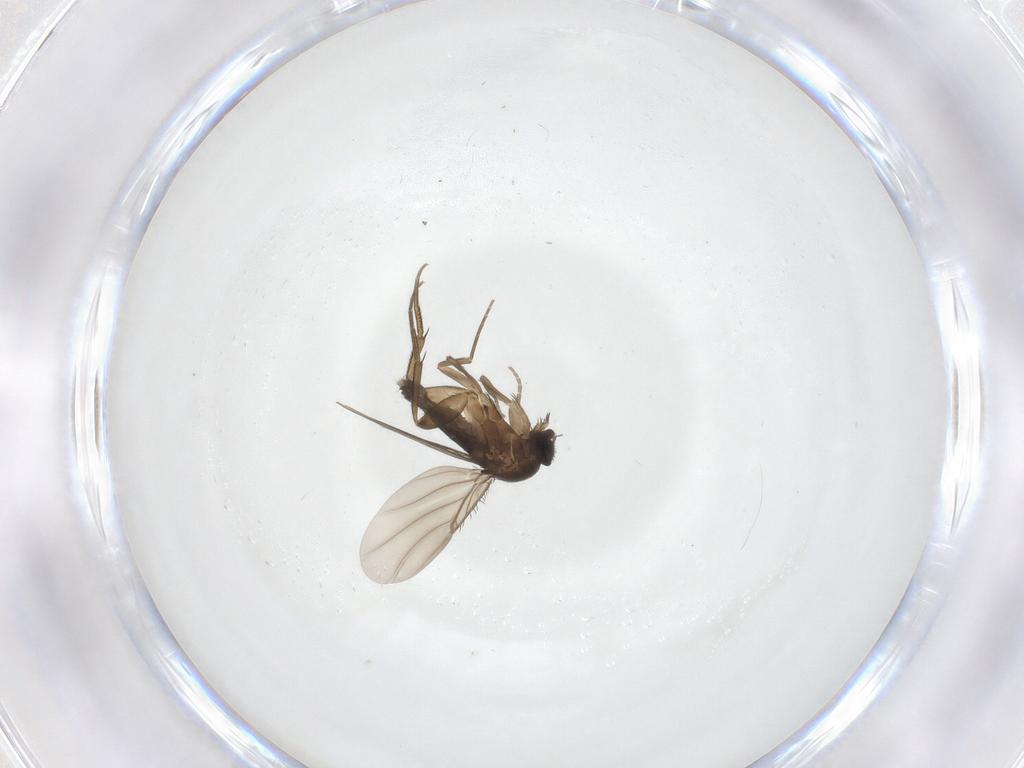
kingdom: Animalia
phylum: Arthropoda
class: Insecta
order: Diptera
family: Phoridae
